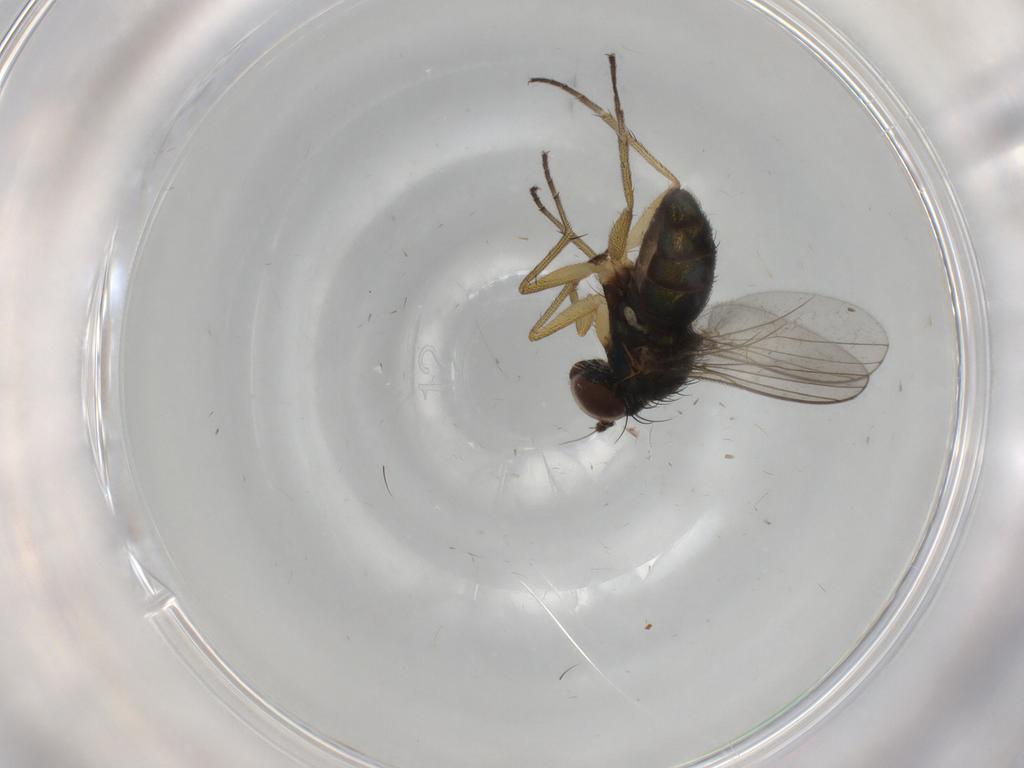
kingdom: Animalia
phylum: Arthropoda
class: Insecta
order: Diptera
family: Dolichopodidae
